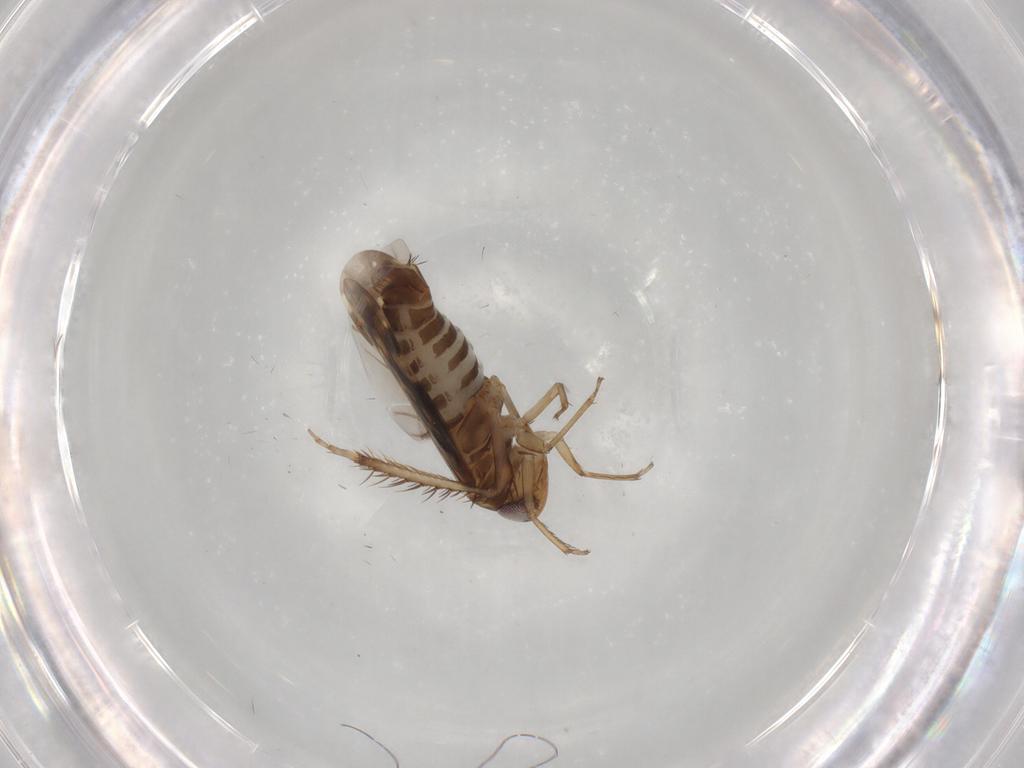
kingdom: Animalia
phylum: Arthropoda
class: Insecta
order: Hemiptera
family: Cicadellidae
